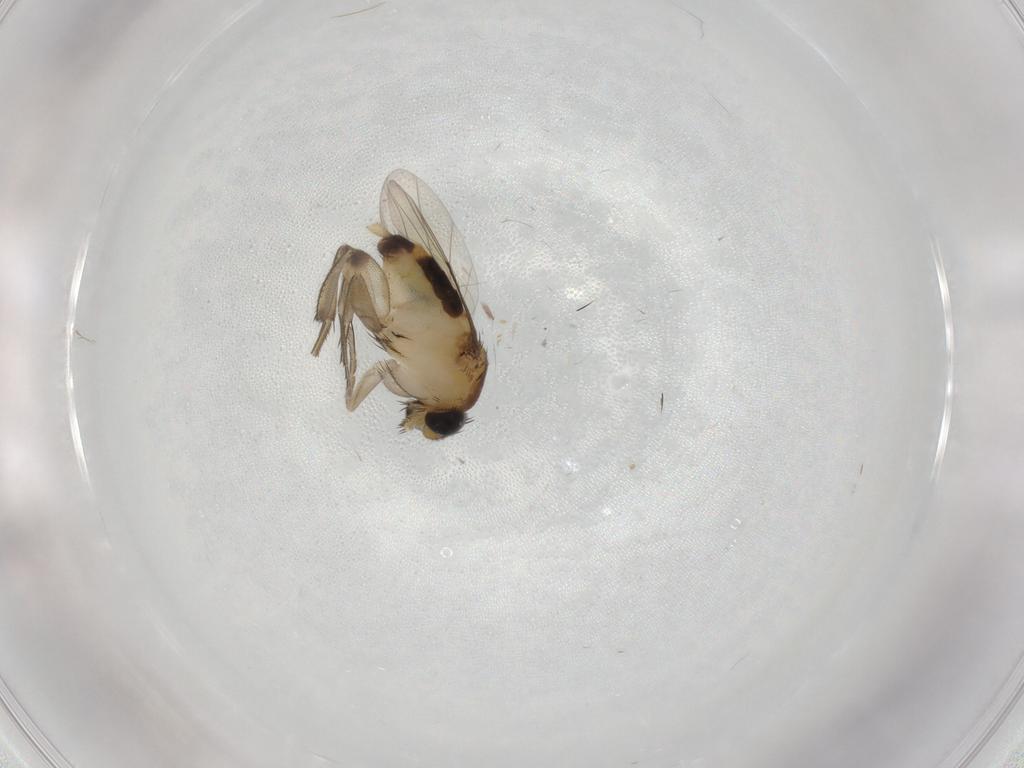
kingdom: Animalia
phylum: Arthropoda
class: Insecta
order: Diptera
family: Phoridae
